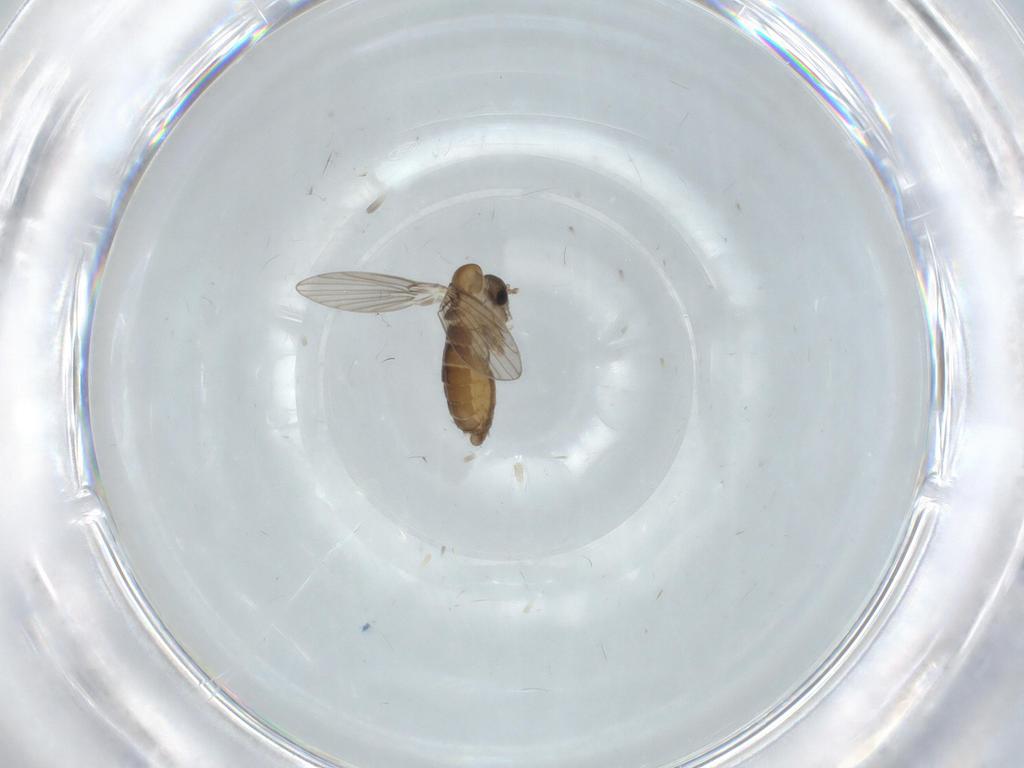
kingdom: Animalia
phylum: Arthropoda
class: Insecta
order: Diptera
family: Psychodidae
